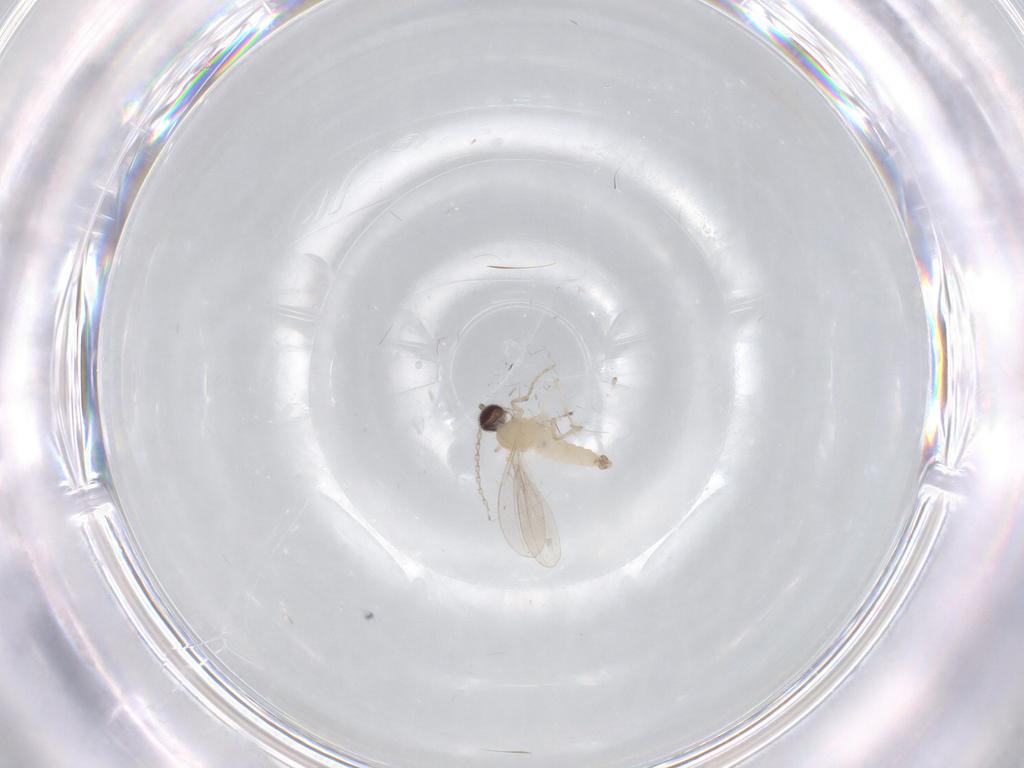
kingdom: Animalia
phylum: Arthropoda
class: Insecta
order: Diptera
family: Cecidomyiidae
